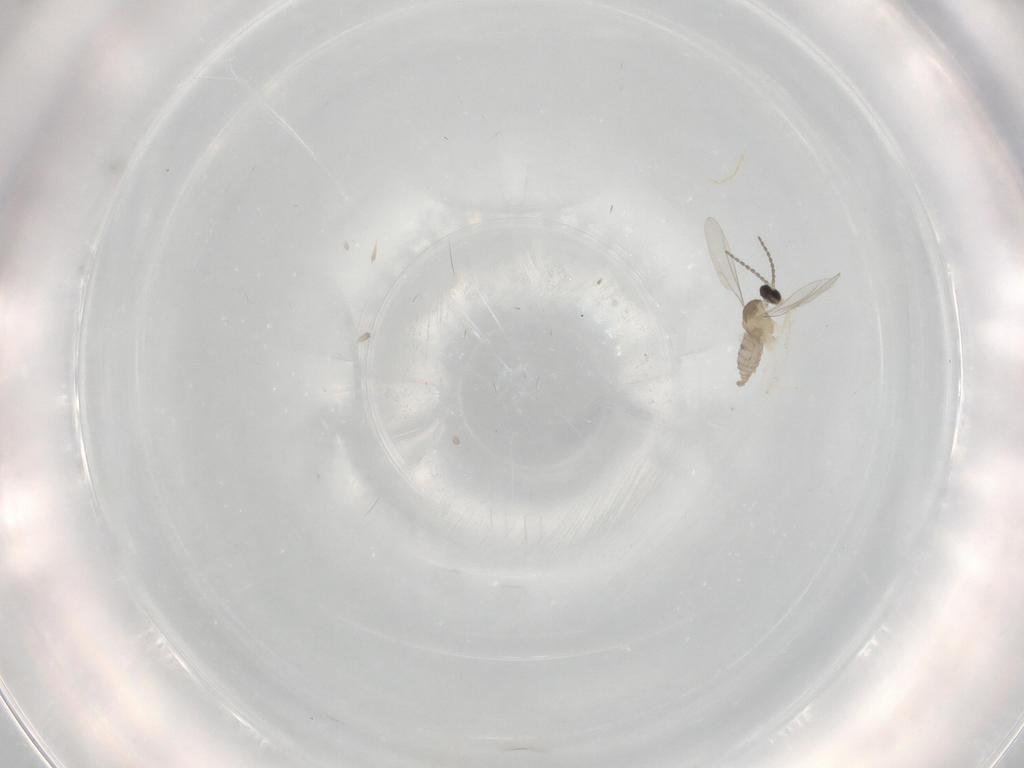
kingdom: Animalia
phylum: Arthropoda
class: Insecta
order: Diptera
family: Cecidomyiidae
